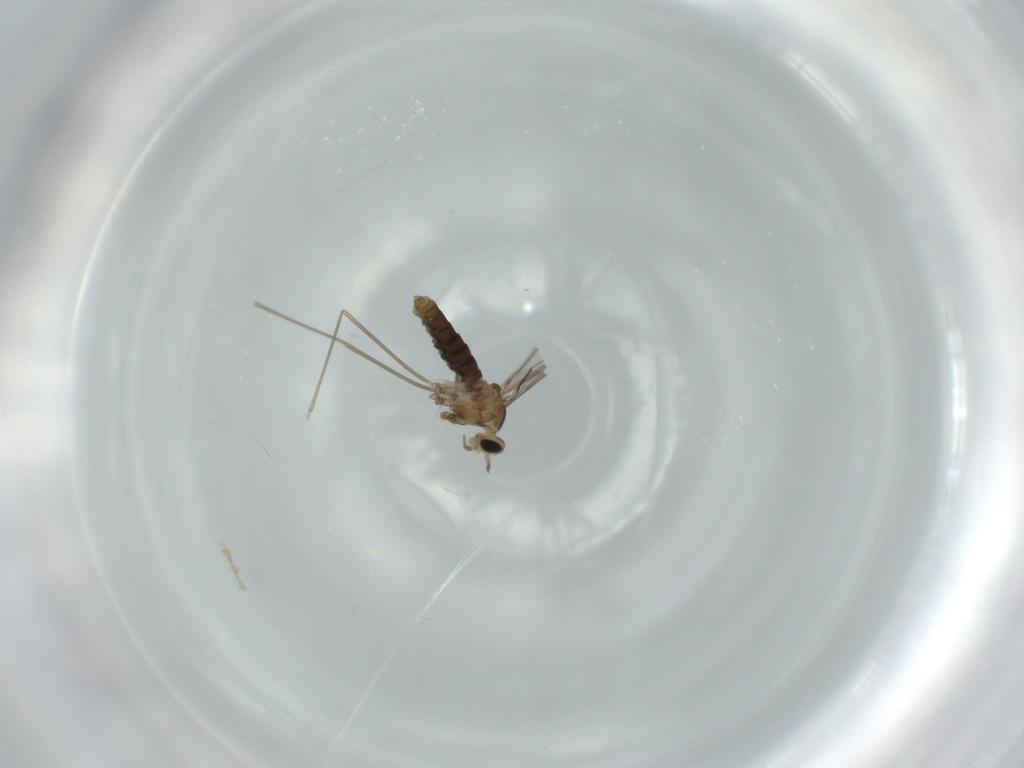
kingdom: Animalia
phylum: Arthropoda
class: Insecta
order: Diptera
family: Cecidomyiidae
